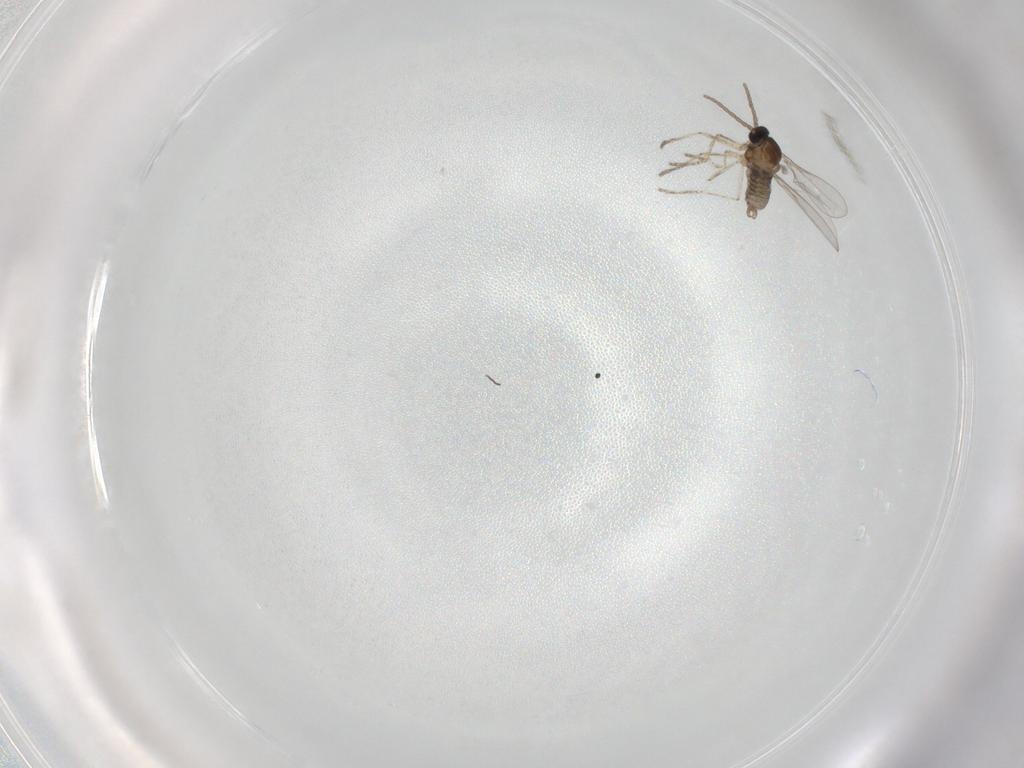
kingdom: Animalia
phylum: Arthropoda
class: Insecta
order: Diptera
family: Cecidomyiidae
